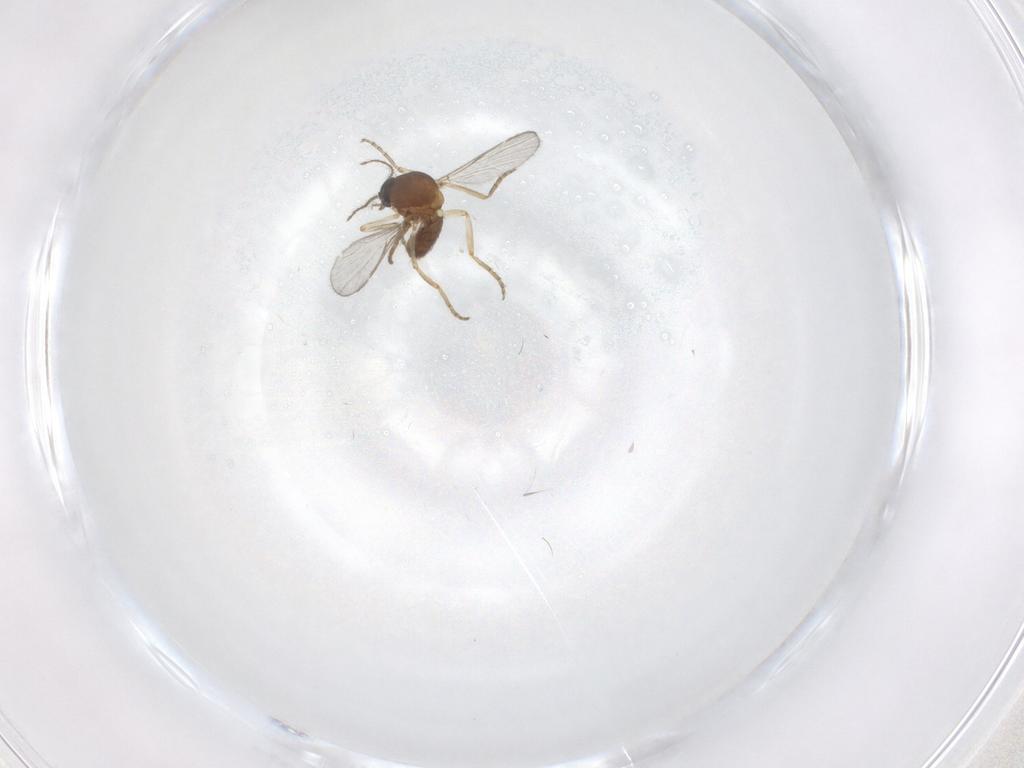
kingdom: Animalia
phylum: Arthropoda
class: Insecta
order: Diptera
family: Ceratopogonidae
